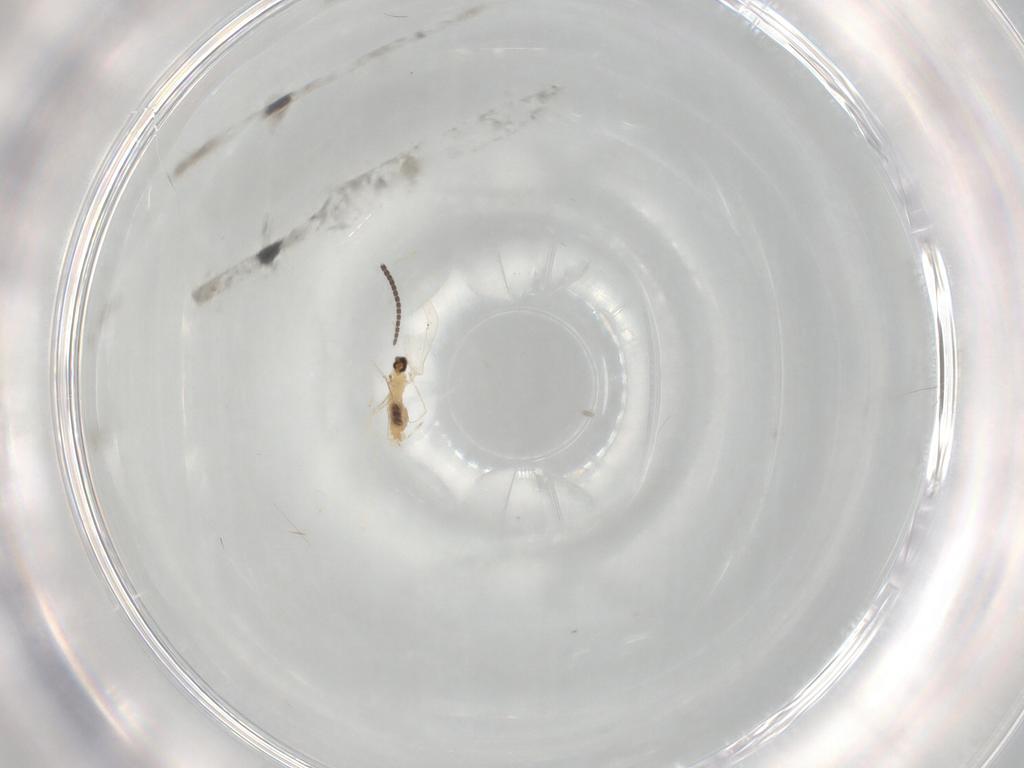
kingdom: Animalia
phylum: Arthropoda
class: Insecta
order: Diptera
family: Sciaridae
